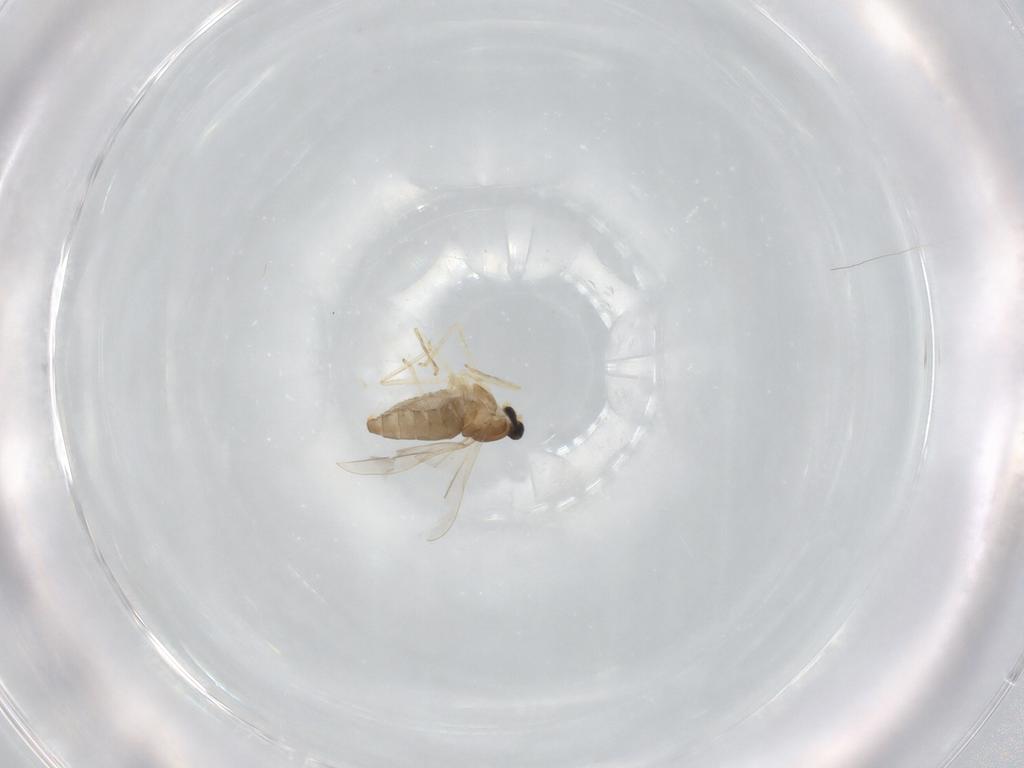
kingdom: Animalia
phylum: Arthropoda
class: Insecta
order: Diptera
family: Cecidomyiidae
